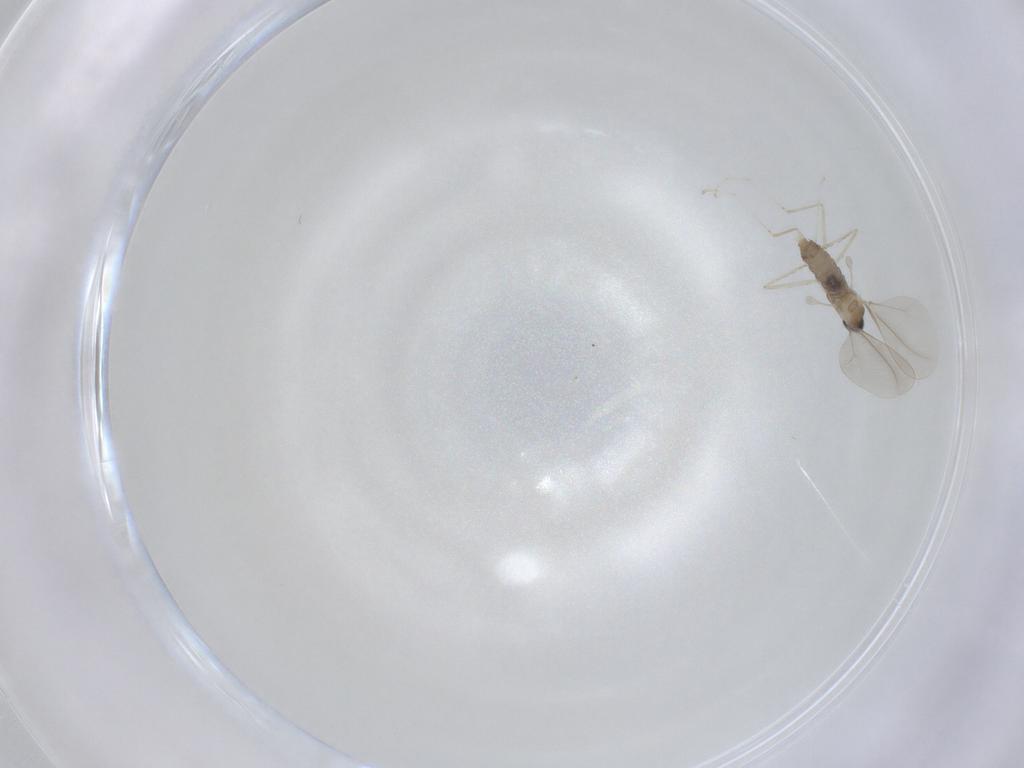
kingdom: Animalia
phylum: Arthropoda
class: Insecta
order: Diptera
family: Cecidomyiidae
